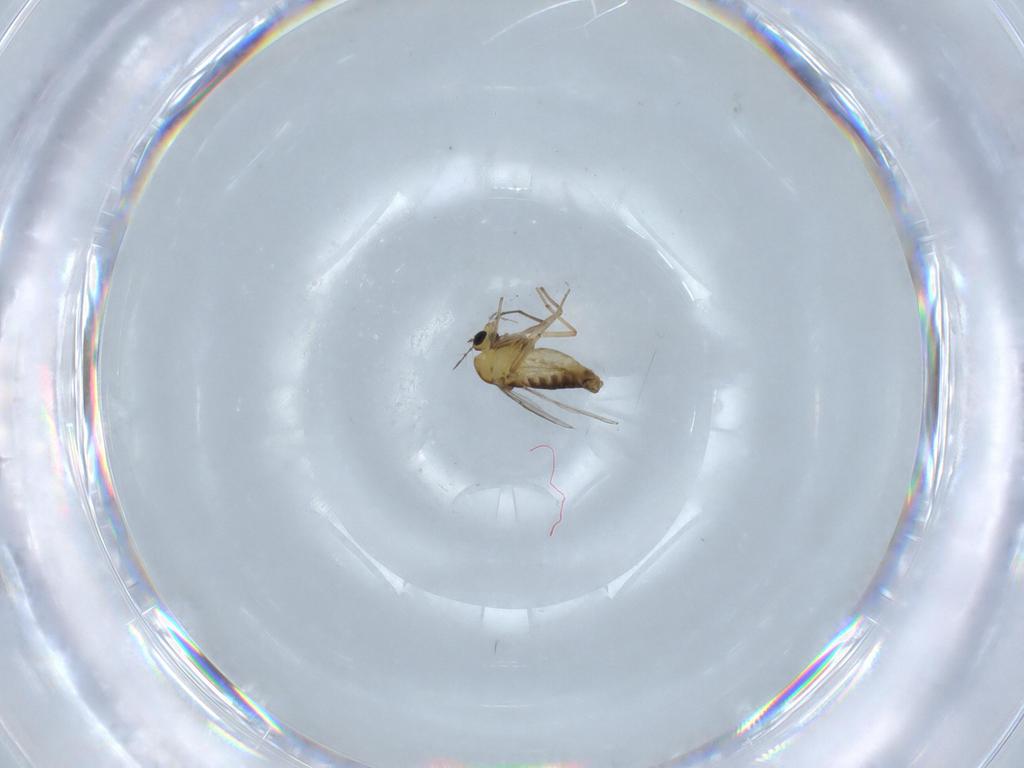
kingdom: Animalia
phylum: Arthropoda
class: Insecta
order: Diptera
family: Chironomidae
